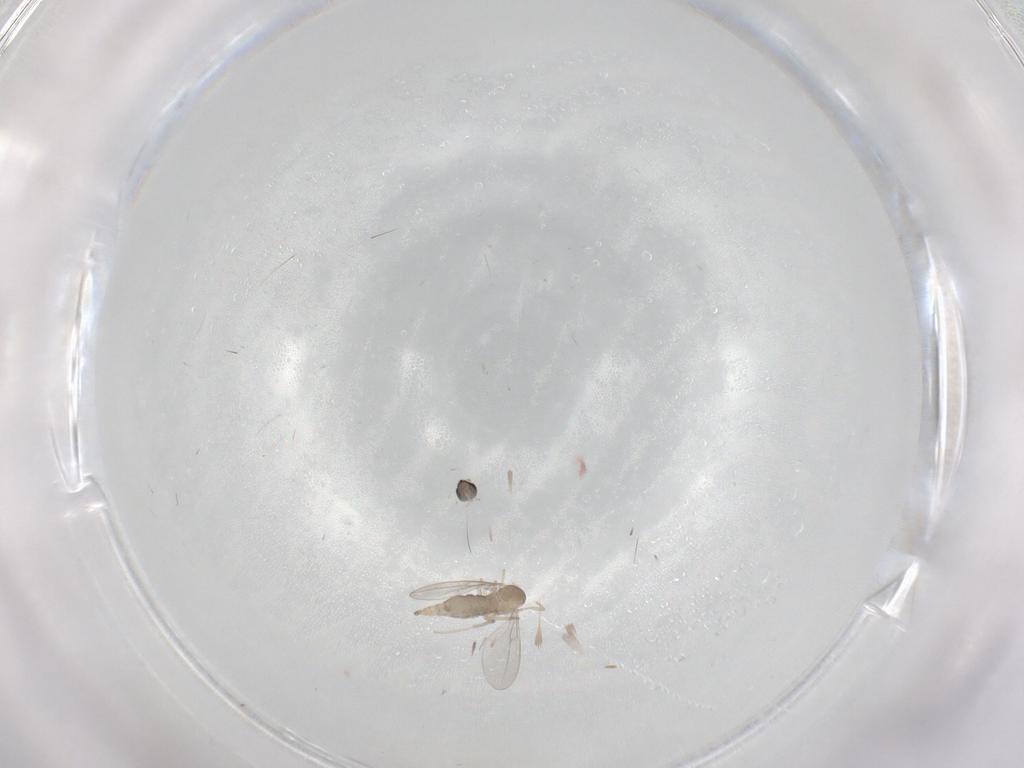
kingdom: Animalia
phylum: Arthropoda
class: Insecta
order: Diptera
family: Cecidomyiidae
